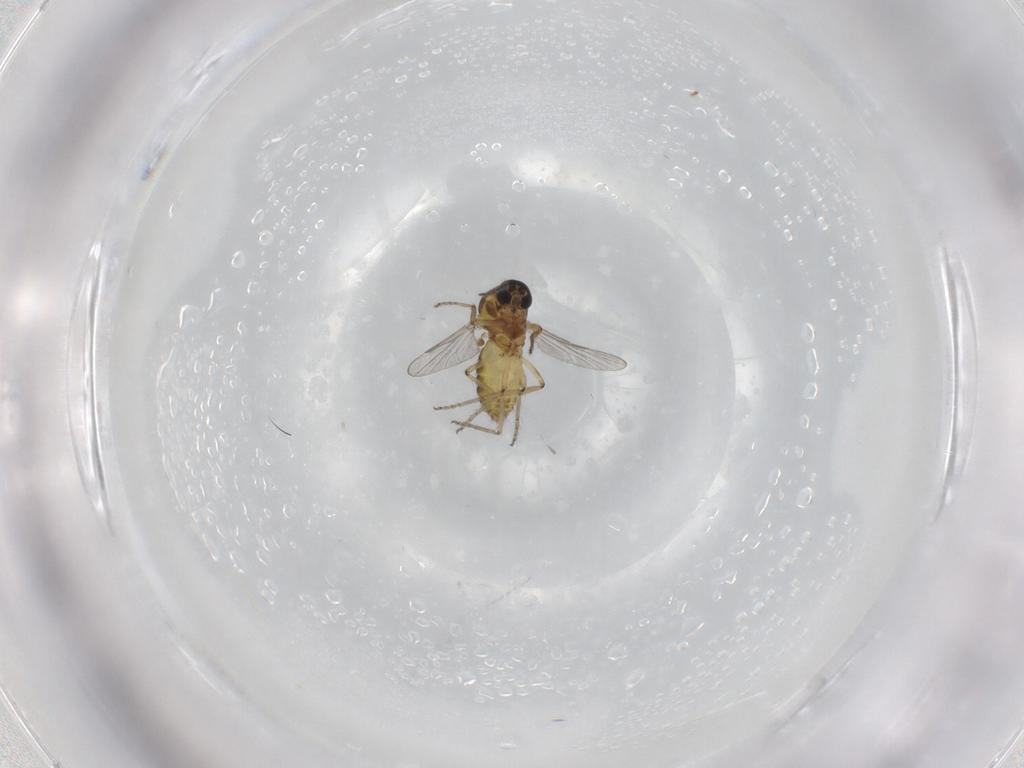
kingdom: Animalia
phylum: Arthropoda
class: Insecta
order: Diptera
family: Ceratopogonidae
